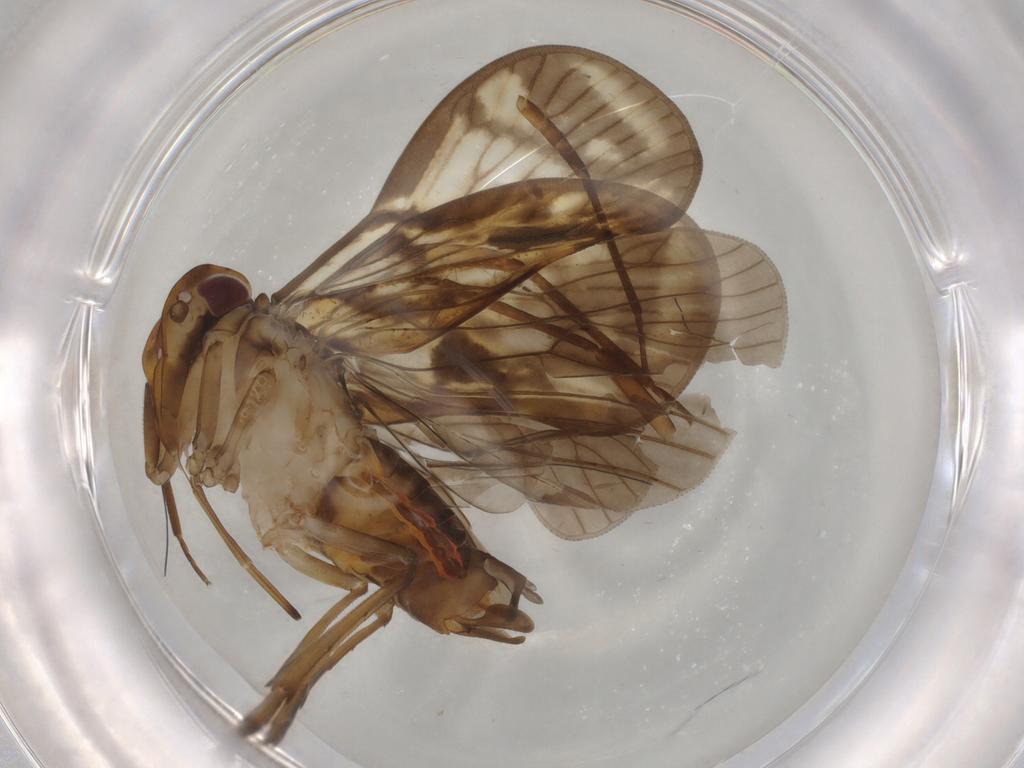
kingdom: Animalia
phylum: Arthropoda
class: Insecta
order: Hemiptera
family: Cixiidae
